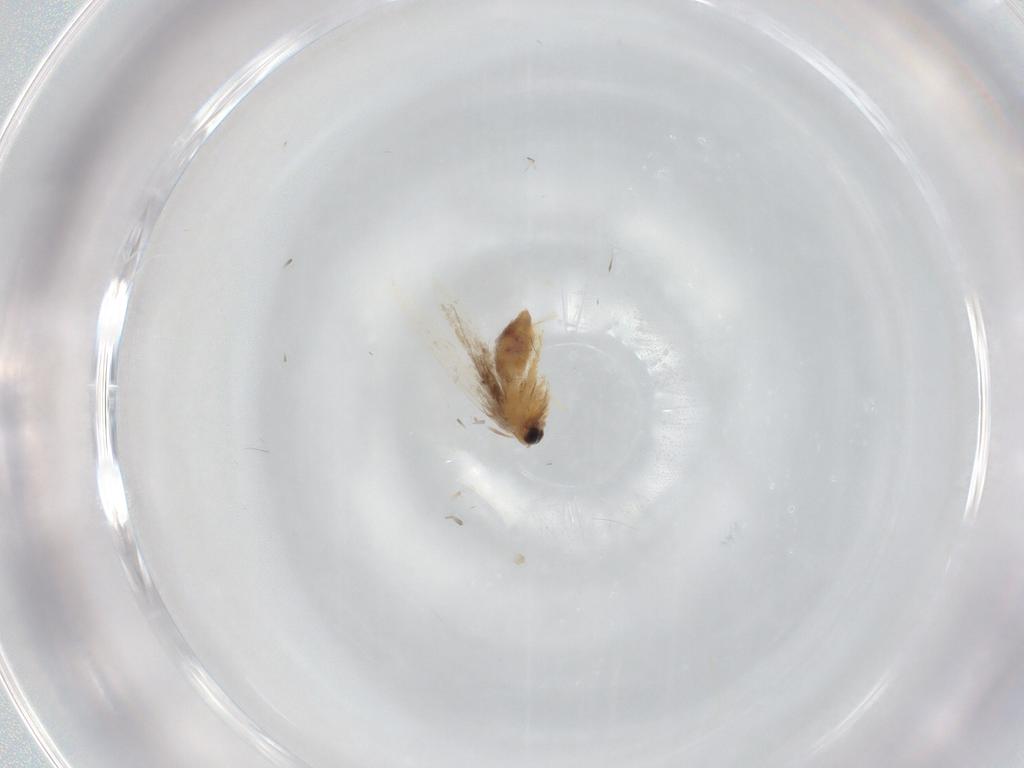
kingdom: Animalia
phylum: Arthropoda
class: Insecta
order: Lepidoptera
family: Nepticulidae
